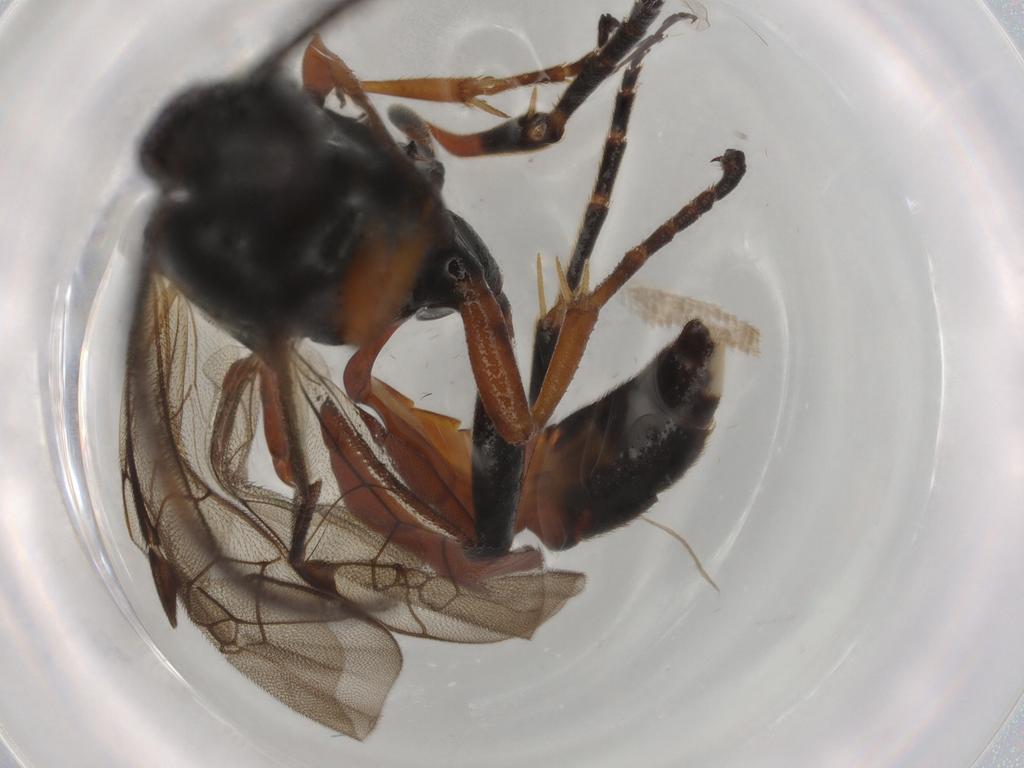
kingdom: Animalia
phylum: Arthropoda
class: Insecta
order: Hymenoptera
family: Ichneumonidae
